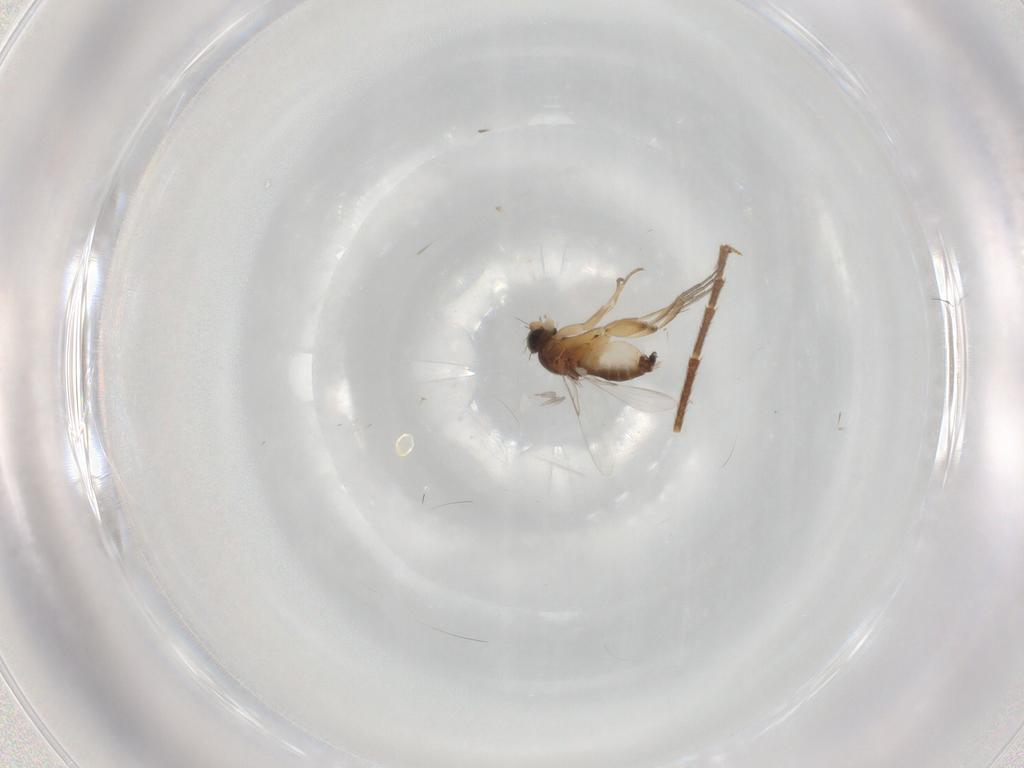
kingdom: Animalia
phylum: Arthropoda
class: Insecta
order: Diptera
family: Phoridae
